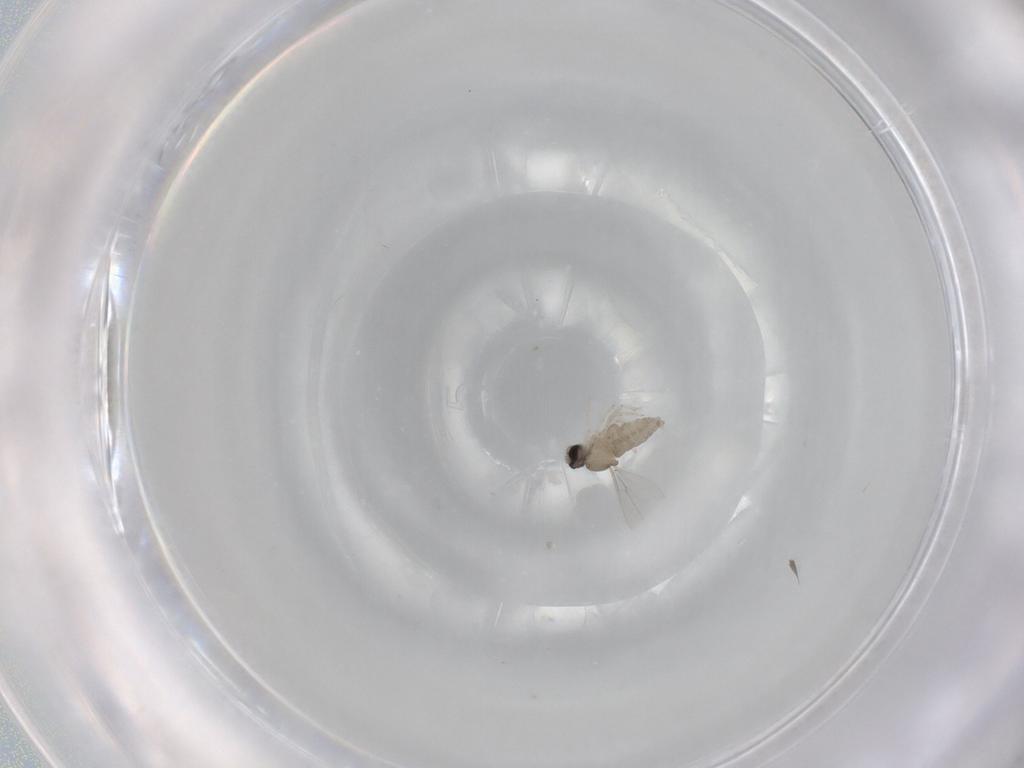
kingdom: Animalia
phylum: Arthropoda
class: Insecta
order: Diptera
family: Cecidomyiidae
